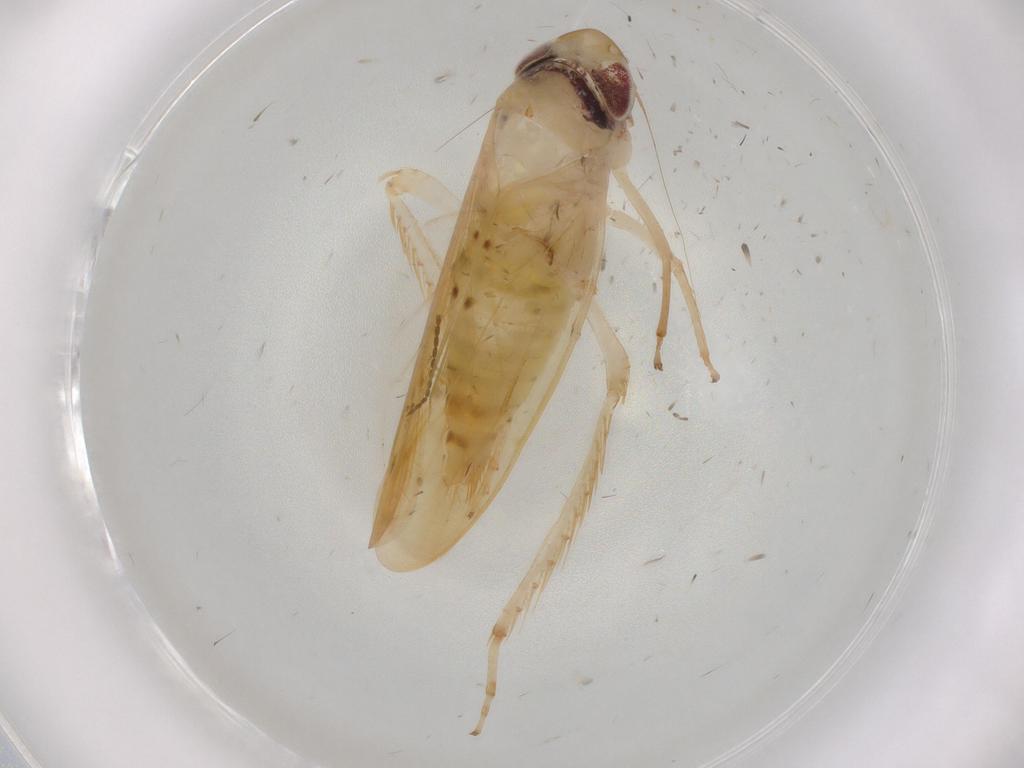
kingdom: Animalia
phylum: Arthropoda
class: Insecta
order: Hemiptera
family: Cicadellidae
